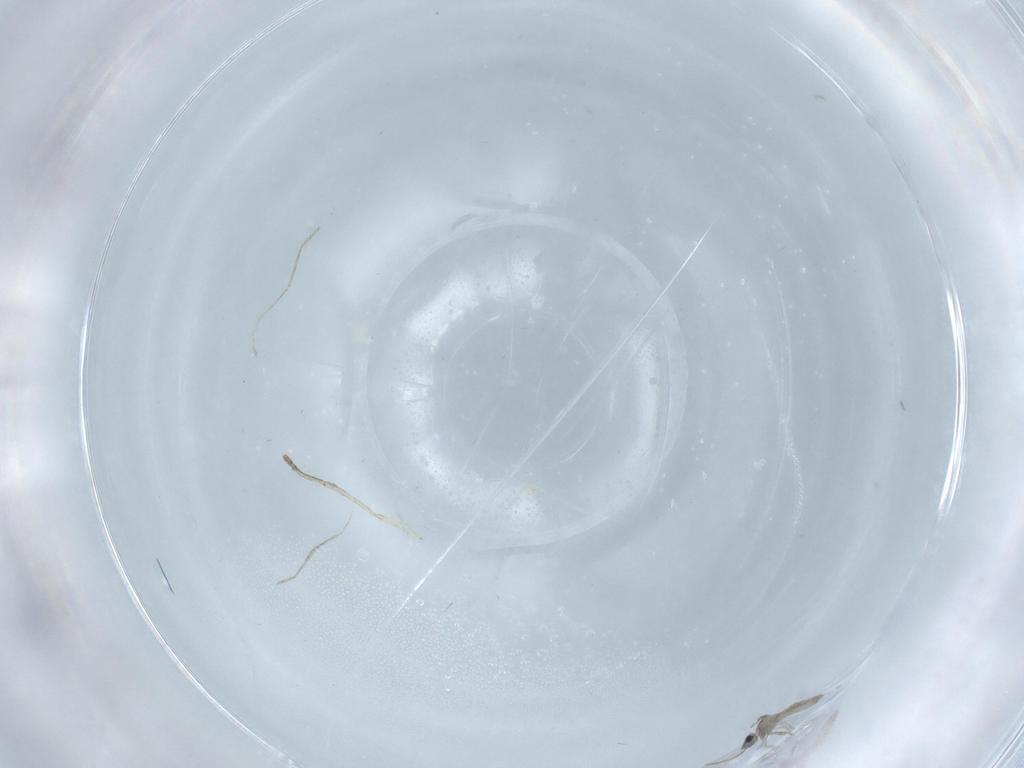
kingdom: Animalia
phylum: Arthropoda
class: Insecta
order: Diptera
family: Cecidomyiidae
